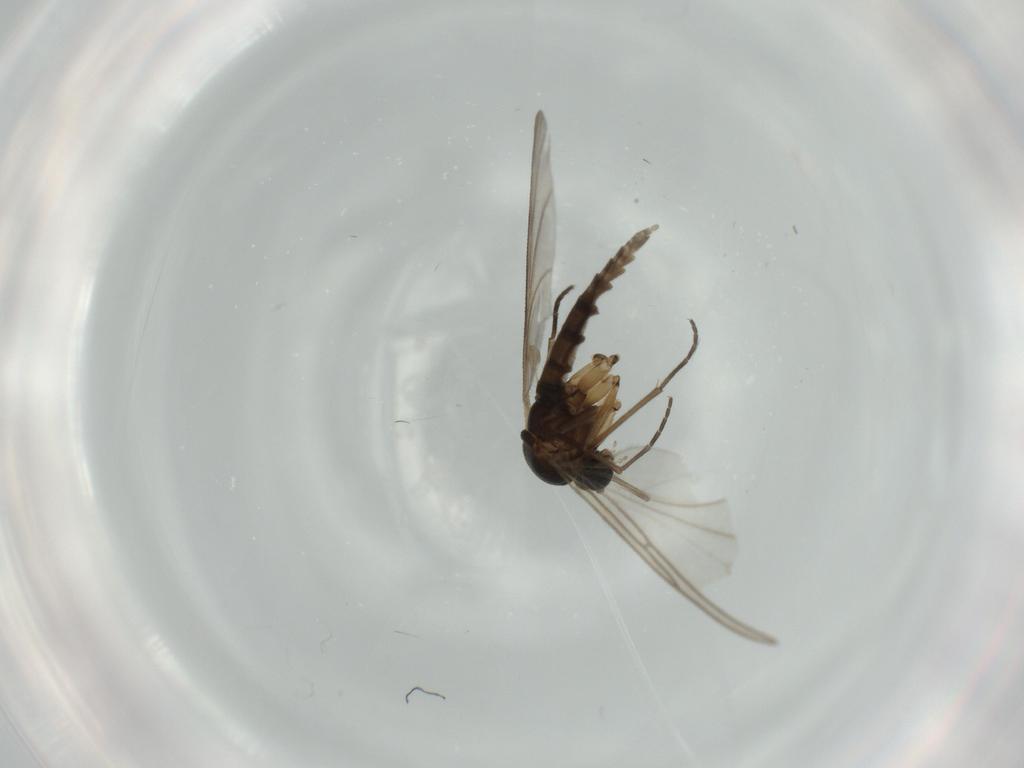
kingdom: Animalia
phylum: Arthropoda
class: Insecta
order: Diptera
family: Sciaridae
